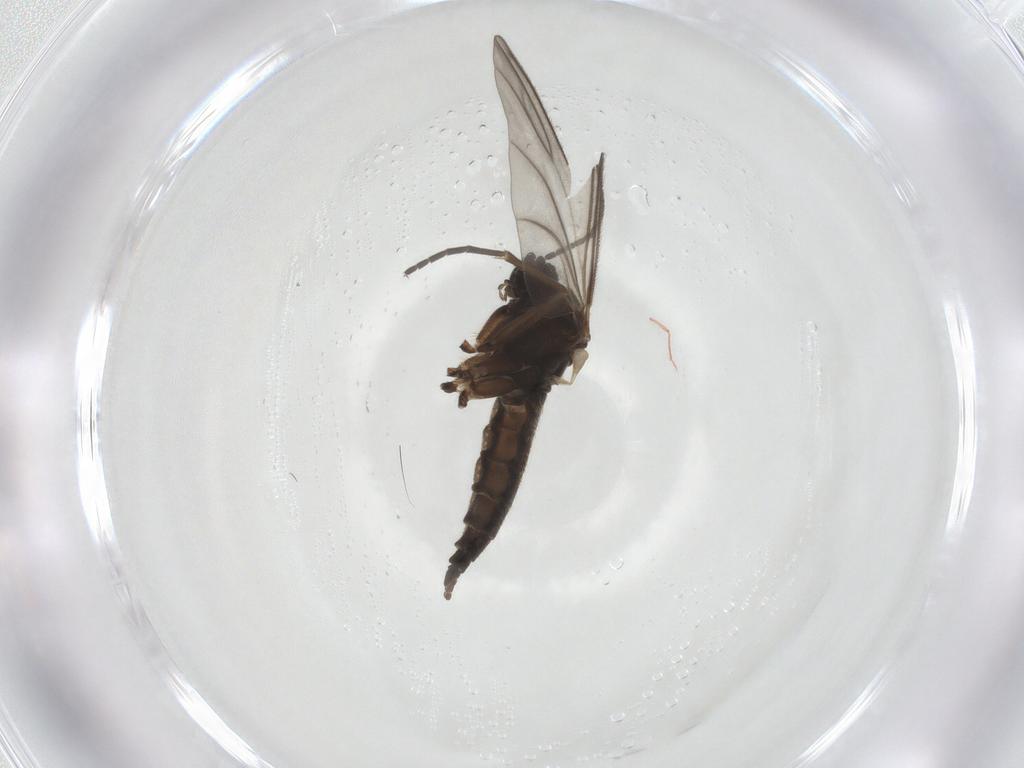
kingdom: Animalia
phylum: Arthropoda
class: Insecta
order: Diptera
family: Sciaridae
